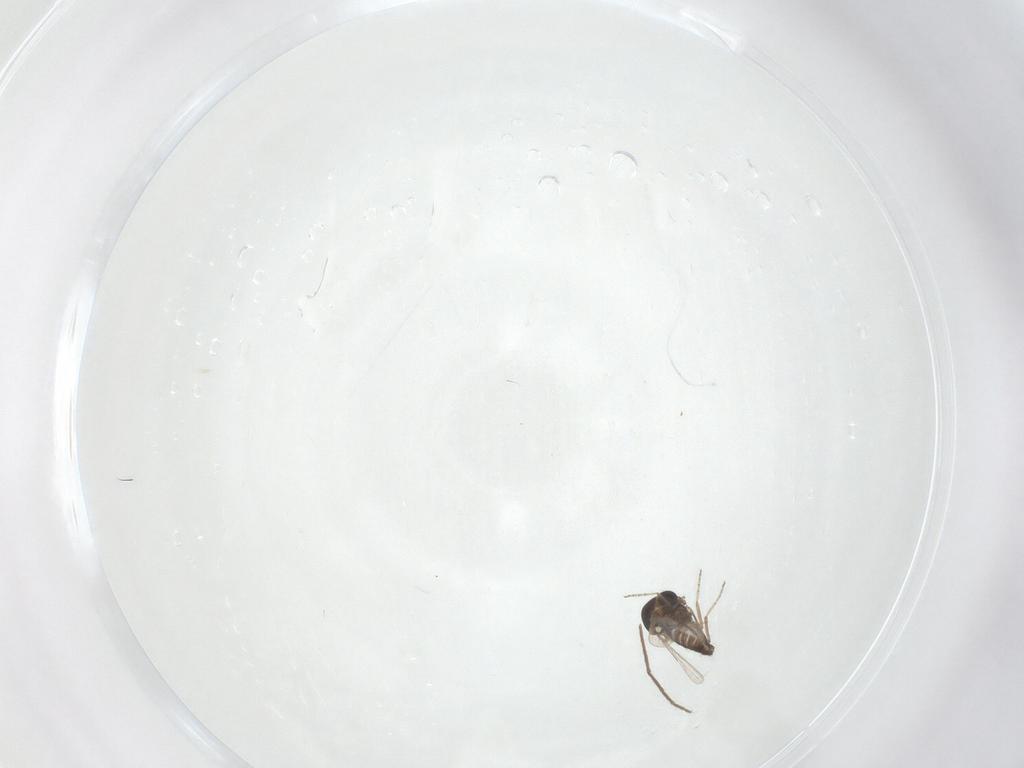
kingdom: Animalia
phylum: Arthropoda
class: Insecta
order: Diptera
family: Ceratopogonidae
